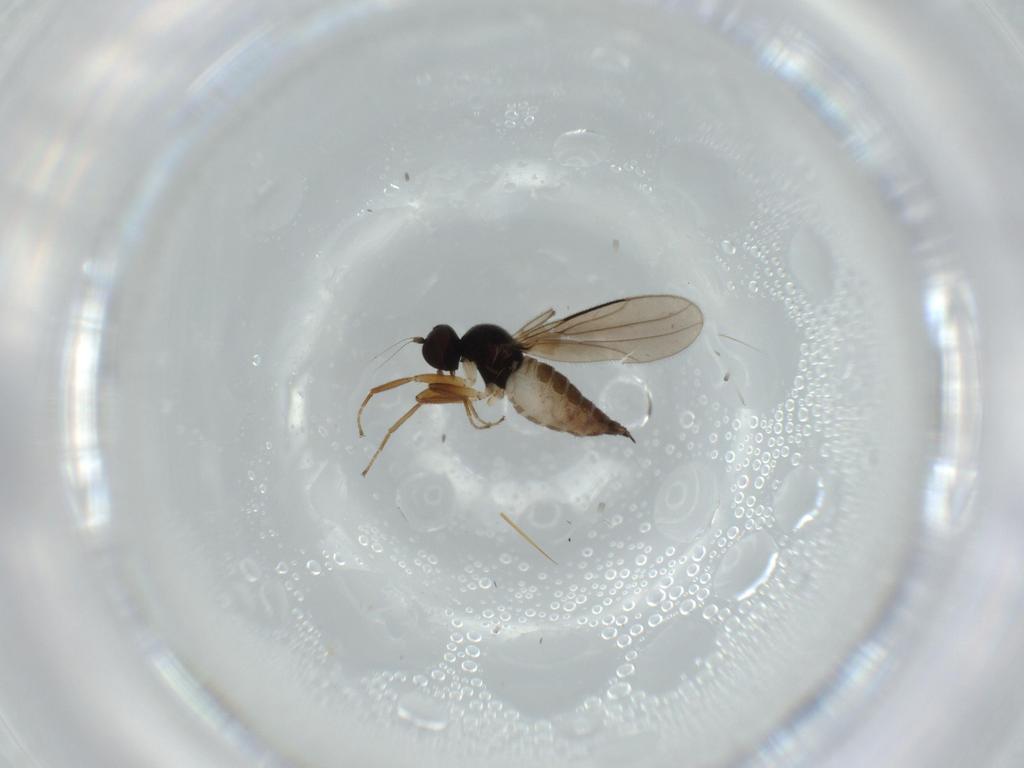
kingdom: Animalia
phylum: Arthropoda
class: Insecta
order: Diptera
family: Hybotidae
